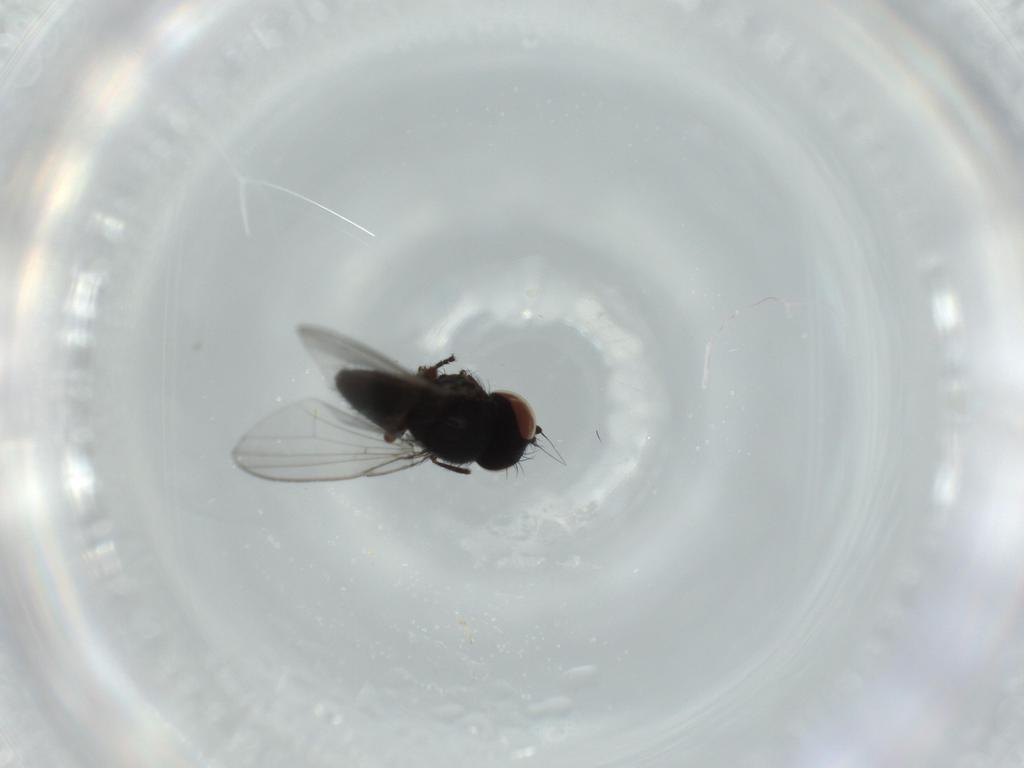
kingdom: Animalia
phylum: Arthropoda
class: Insecta
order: Diptera
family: Milichiidae
